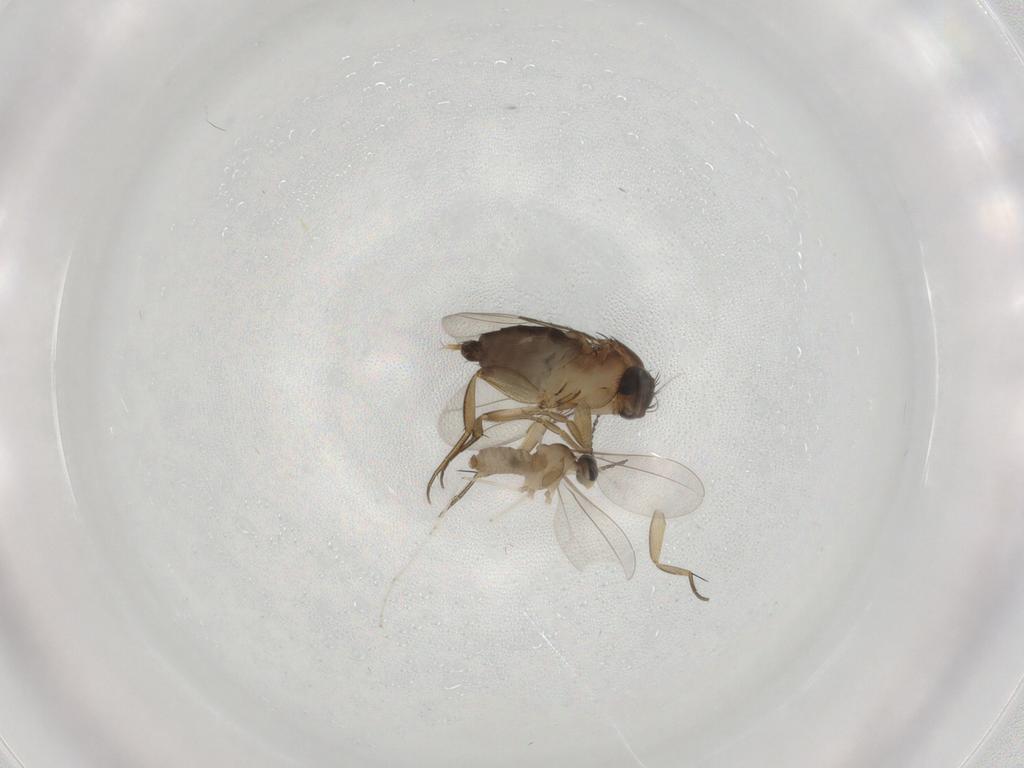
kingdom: Animalia
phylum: Arthropoda
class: Insecta
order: Diptera
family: Phoridae
